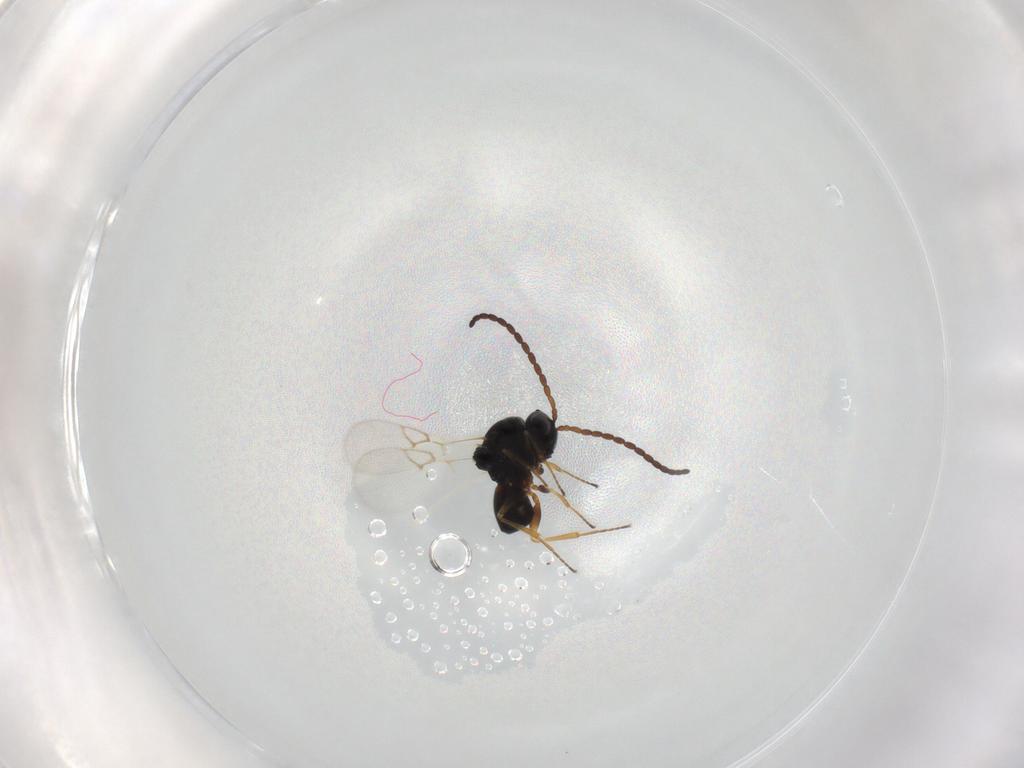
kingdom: Animalia
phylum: Arthropoda
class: Insecta
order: Hymenoptera
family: Figitidae
